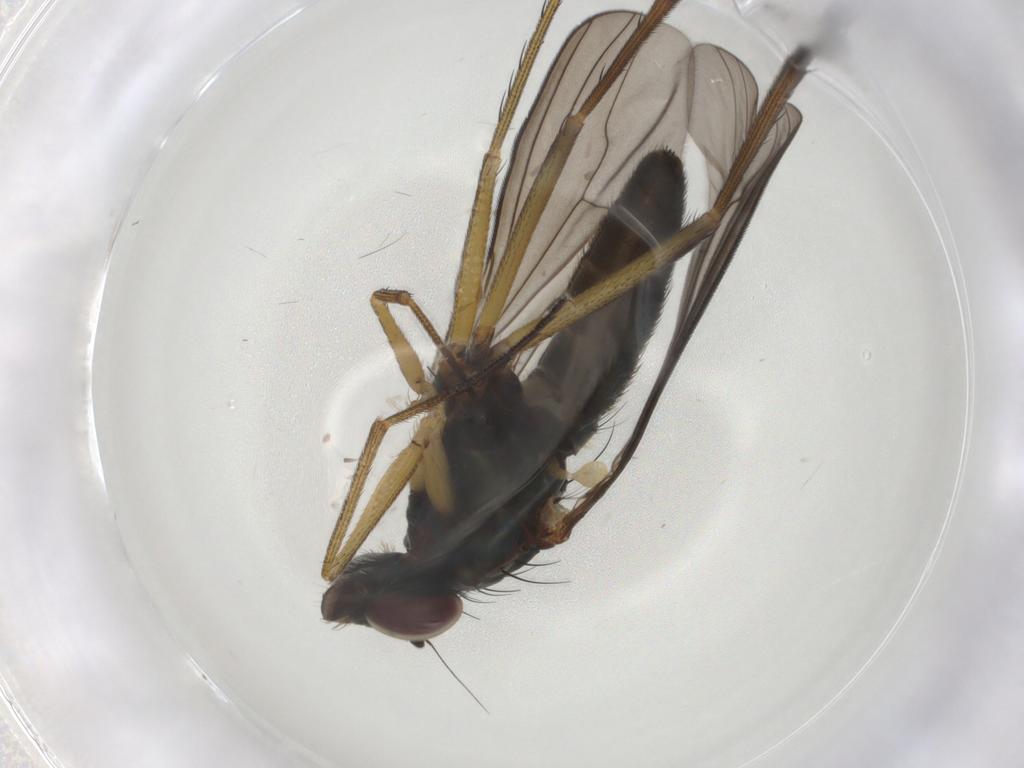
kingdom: Animalia
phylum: Arthropoda
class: Insecta
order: Diptera
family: Dolichopodidae
